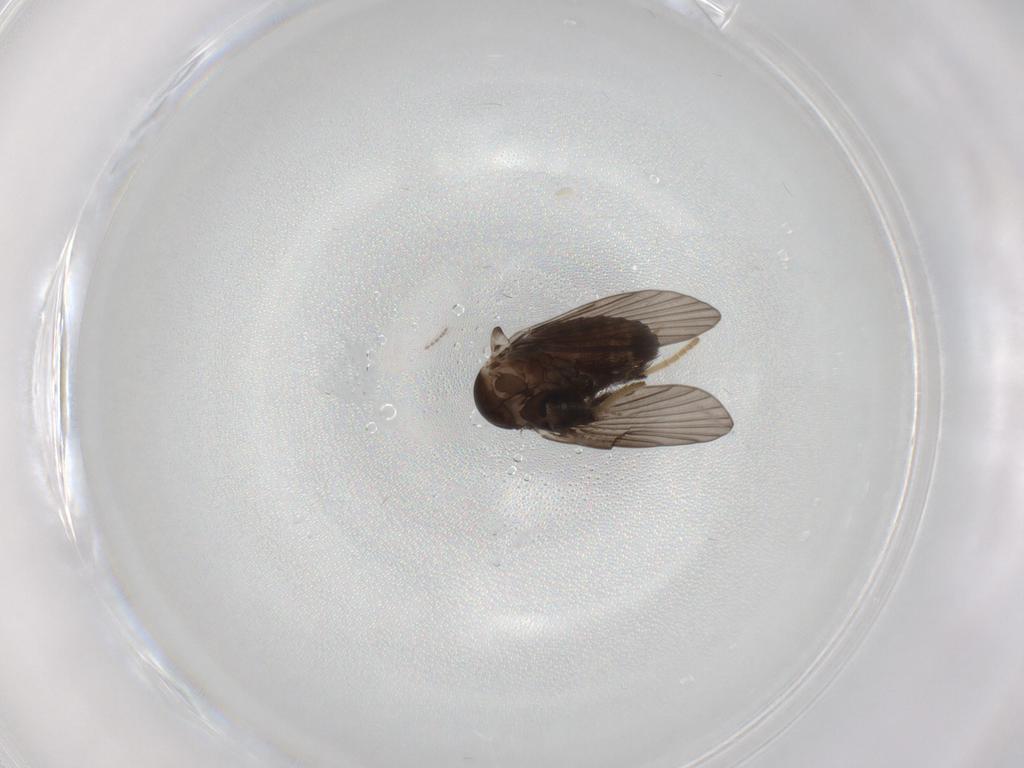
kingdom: Animalia
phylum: Arthropoda
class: Insecta
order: Diptera
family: Psychodidae
